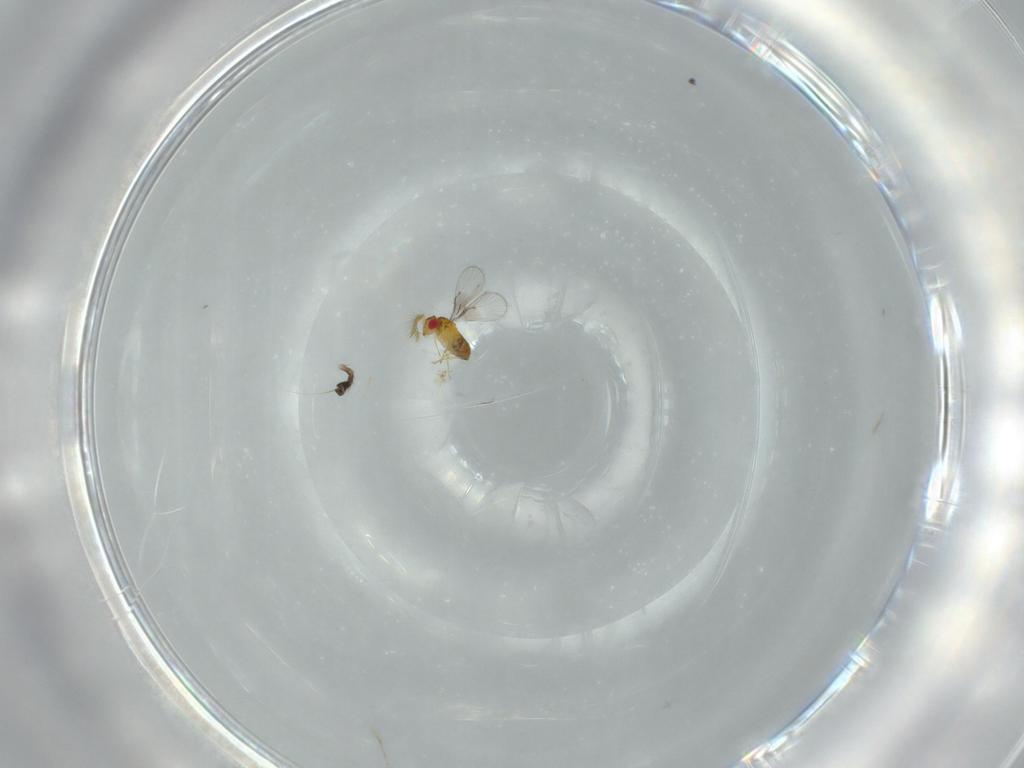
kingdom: Animalia
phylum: Arthropoda
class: Insecta
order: Hymenoptera
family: Trichogrammatidae
